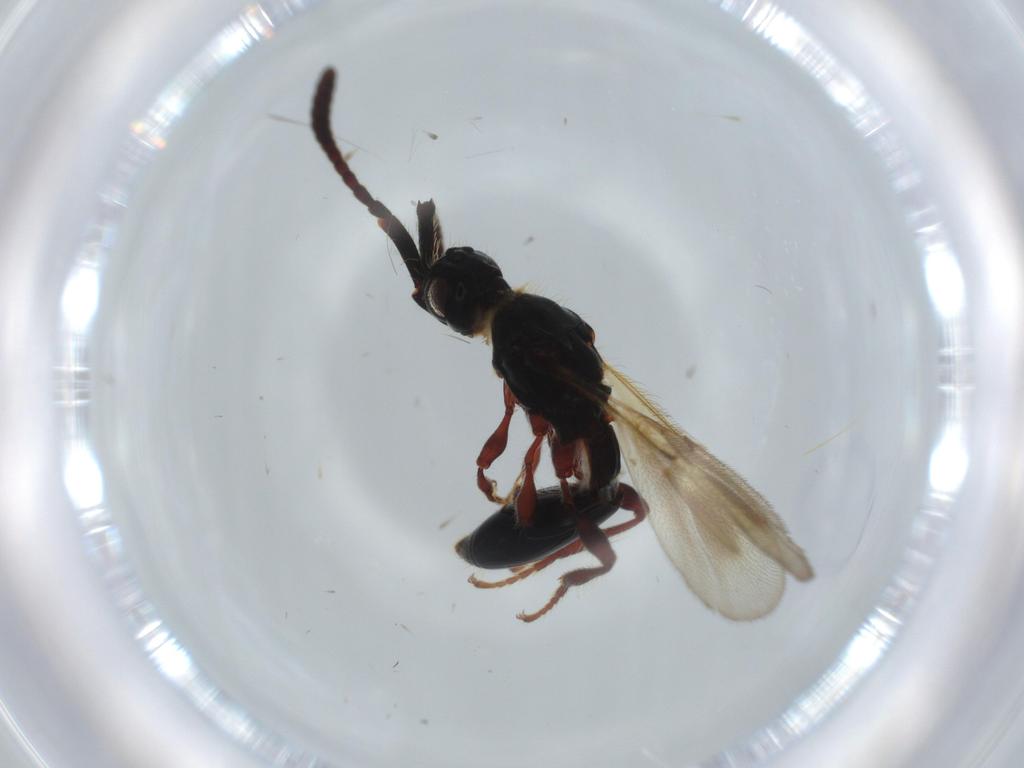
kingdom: Animalia
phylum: Arthropoda
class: Insecta
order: Hymenoptera
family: Diapriidae
